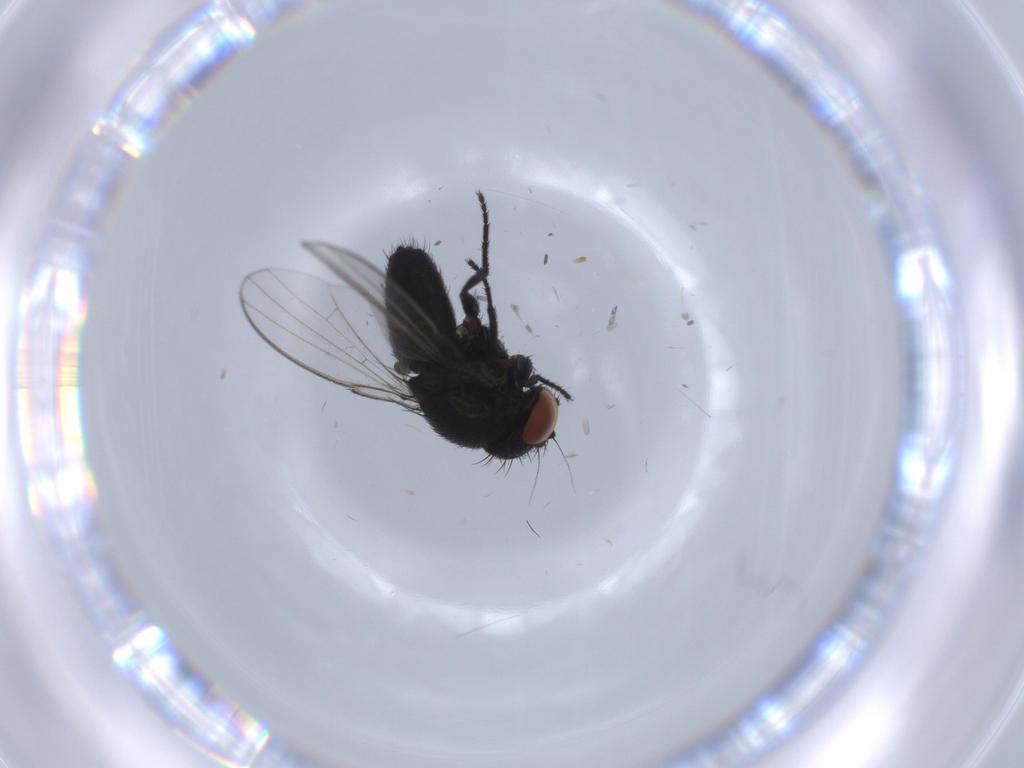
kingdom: Animalia
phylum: Arthropoda
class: Insecta
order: Diptera
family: Milichiidae
